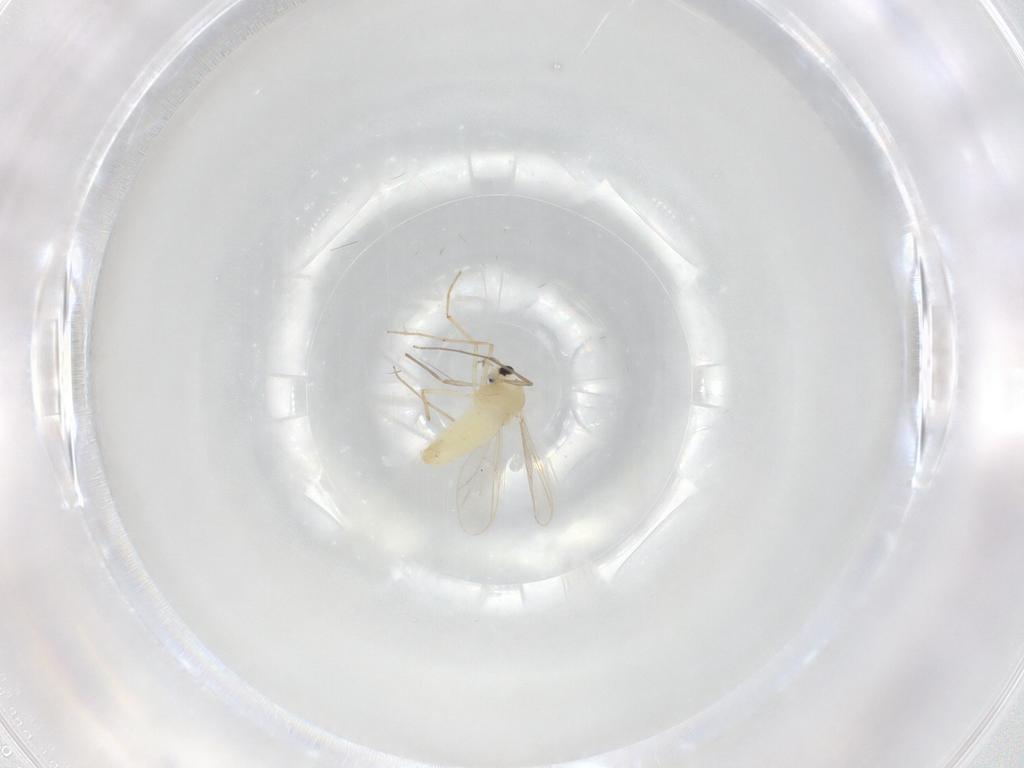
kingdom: Animalia
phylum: Arthropoda
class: Insecta
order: Diptera
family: Chironomidae
